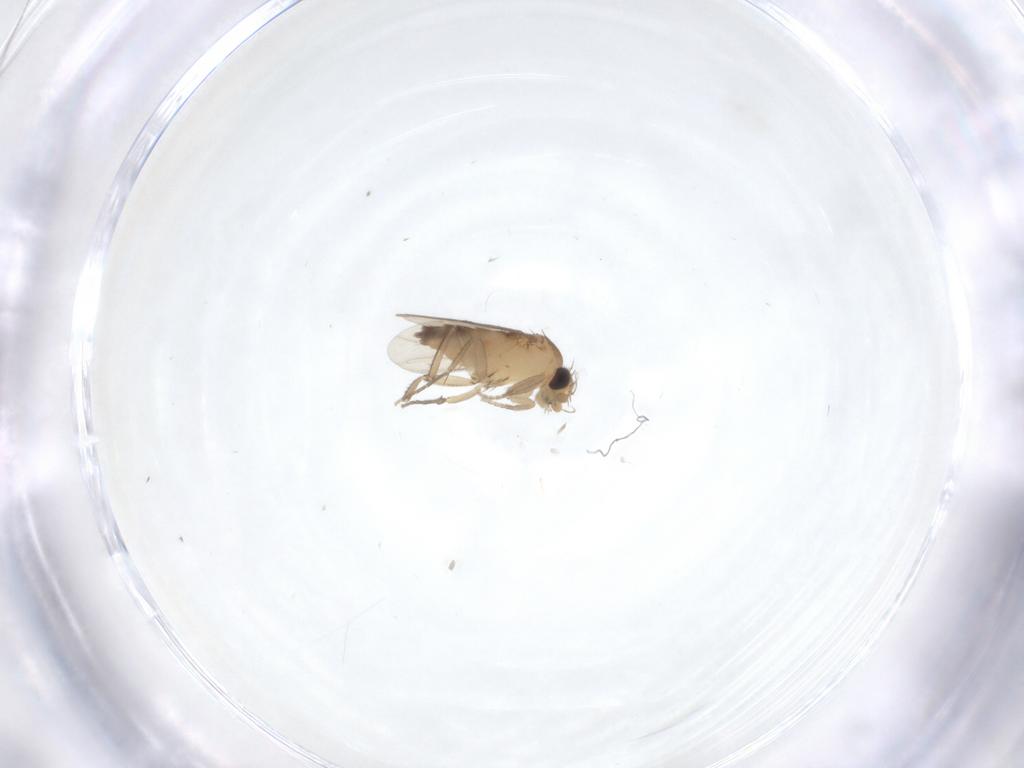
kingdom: Animalia
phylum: Arthropoda
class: Insecta
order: Diptera
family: Phoridae
